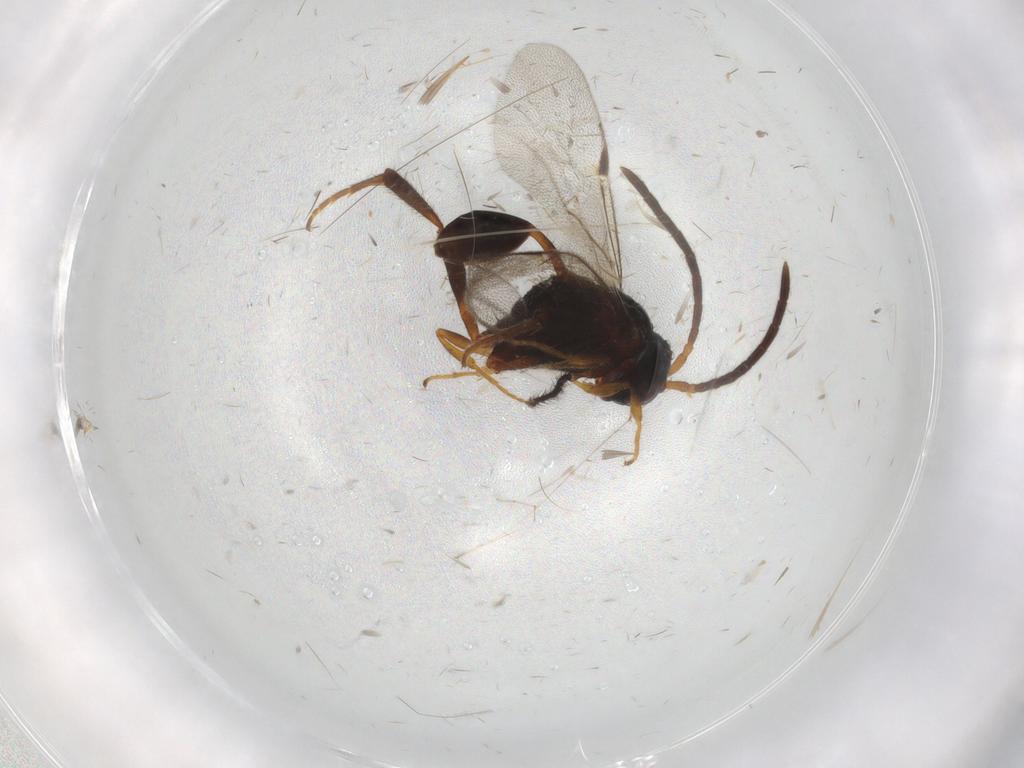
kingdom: Animalia
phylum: Arthropoda
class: Insecta
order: Hymenoptera
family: Evaniidae
